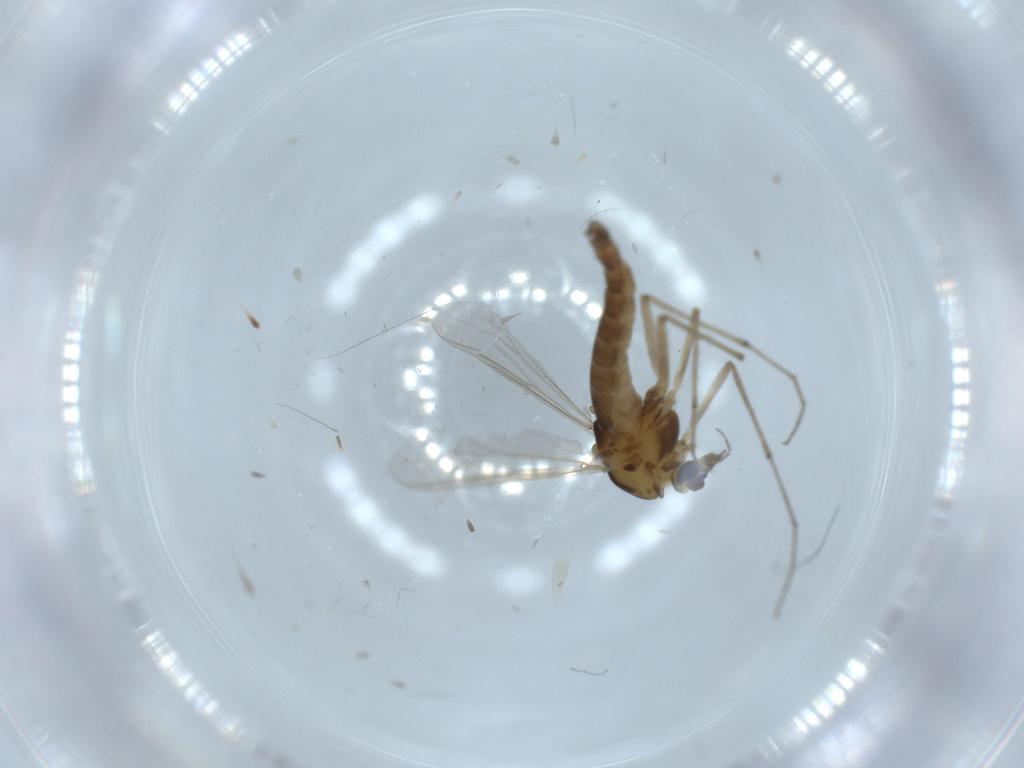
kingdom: Animalia
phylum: Arthropoda
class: Insecta
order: Diptera
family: Chironomidae
